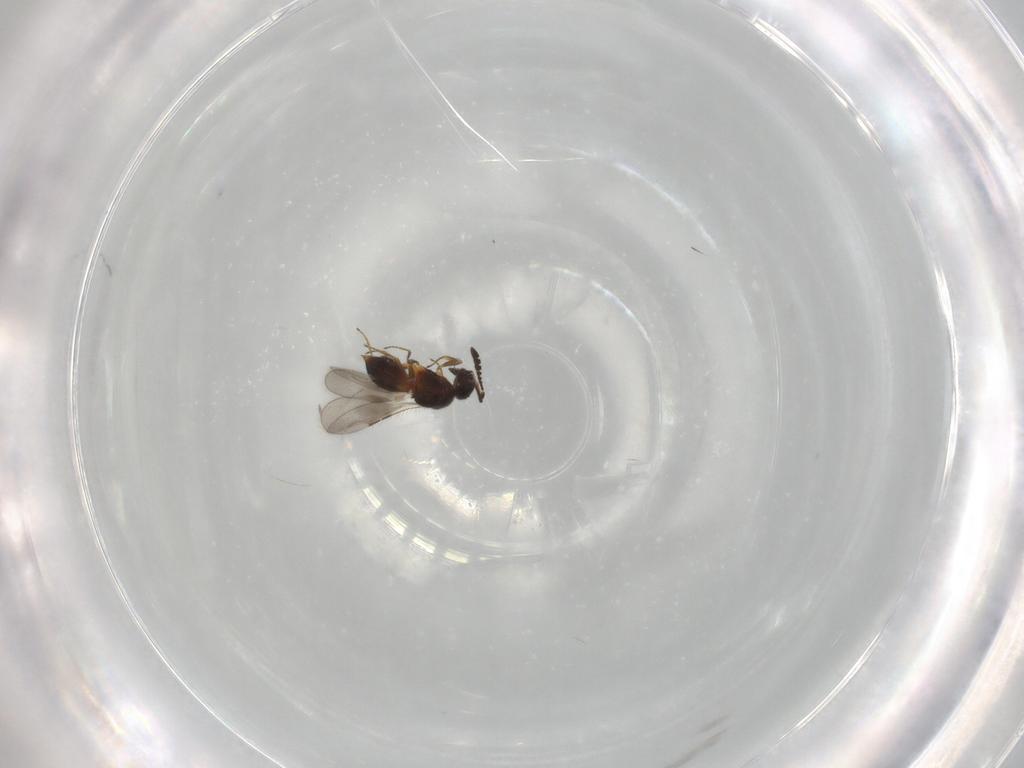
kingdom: Animalia
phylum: Arthropoda
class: Insecta
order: Hymenoptera
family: Ceraphronidae
